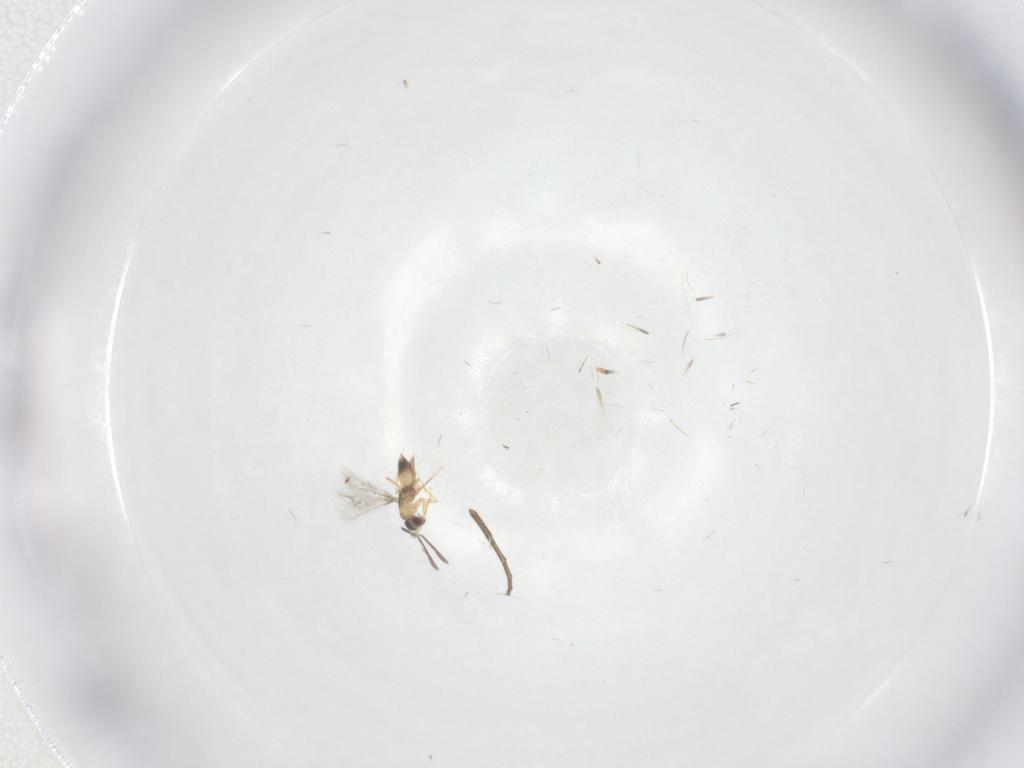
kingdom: Animalia
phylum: Arthropoda
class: Insecta
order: Hymenoptera
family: Mymaridae
